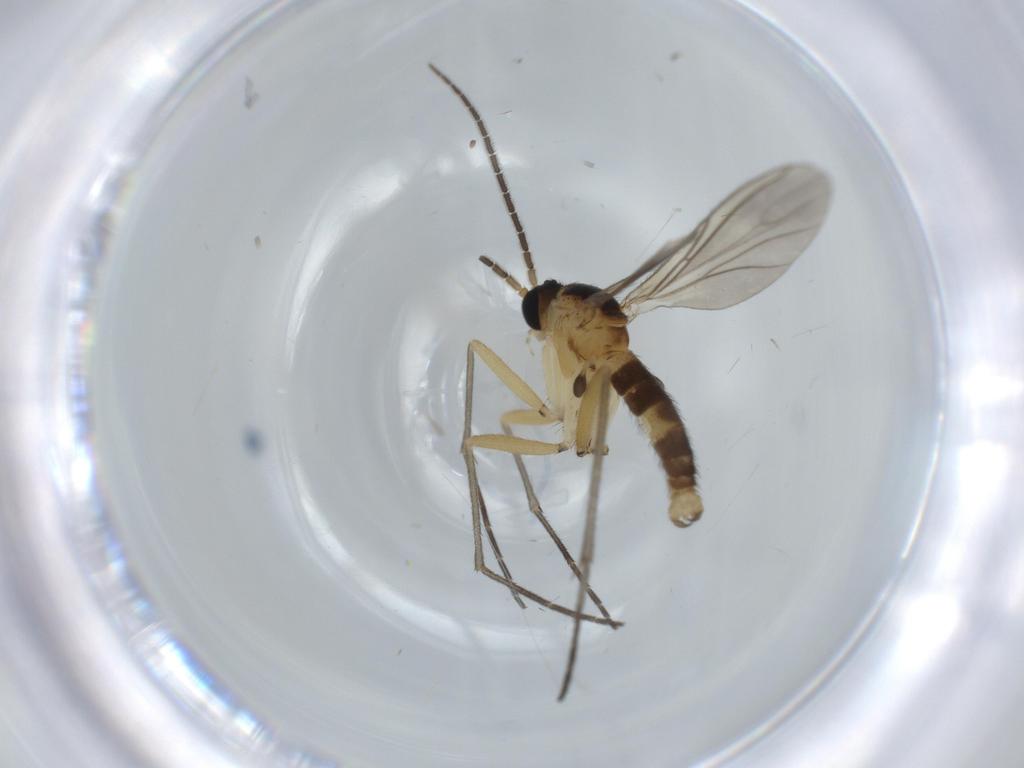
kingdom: Animalia
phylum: Arthropoda
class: Insecta
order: Diptera
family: Sciaridae
